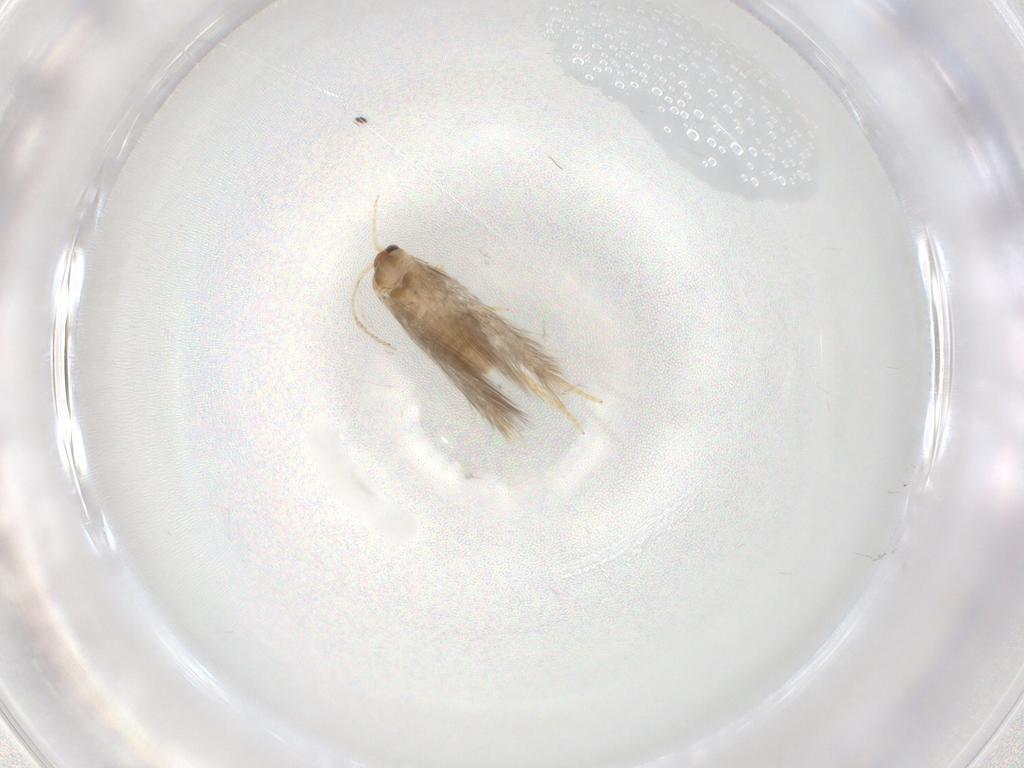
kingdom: Animalia
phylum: Arthropoda
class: Insecta
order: Lepidoptera
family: Nepticulidae
